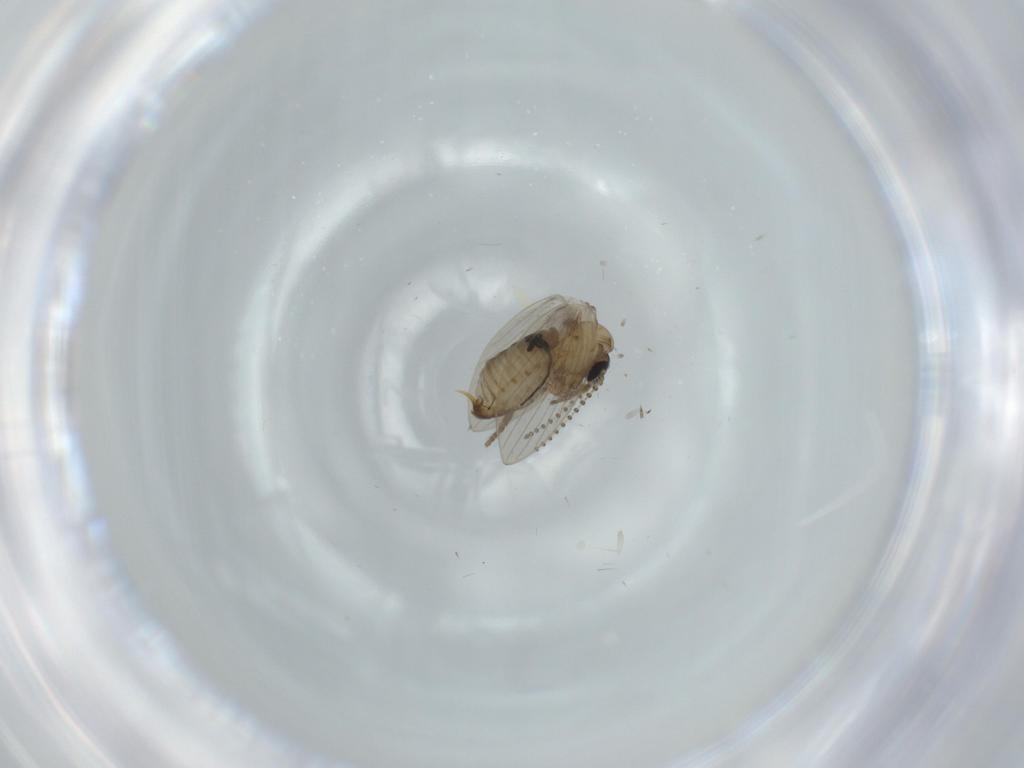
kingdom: Animalia
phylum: Arthropoda
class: Insecta
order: Diptera
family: Psychodidae
